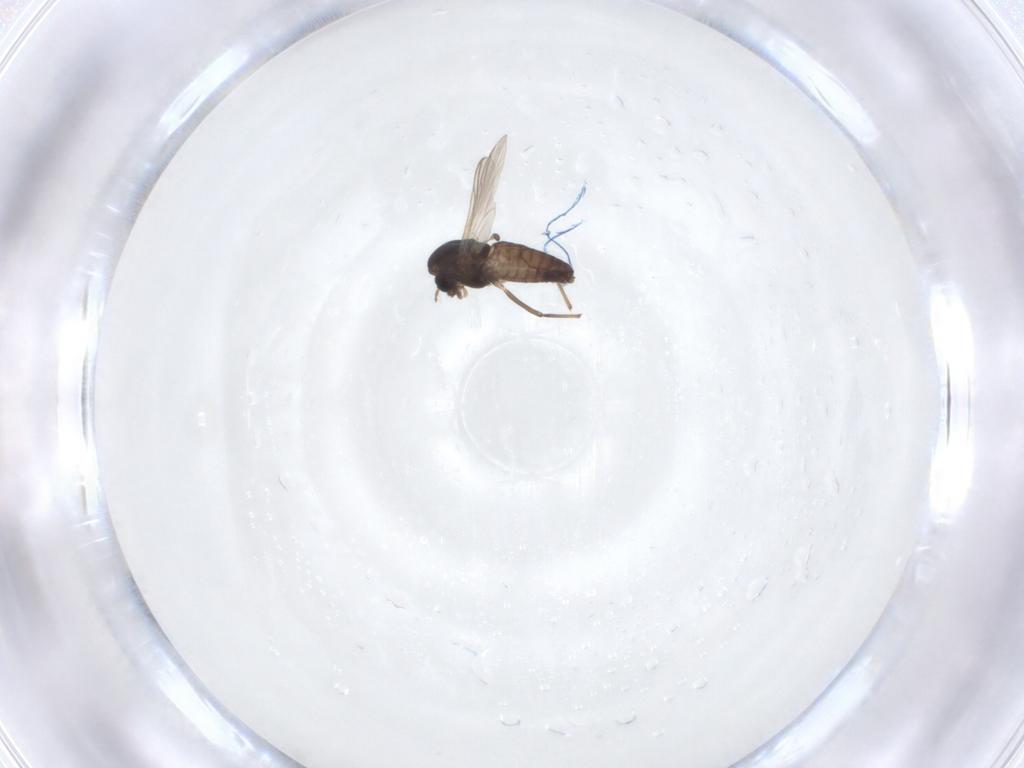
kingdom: Animalia
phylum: Arthropoda
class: Insecta
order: Diptera
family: Chironomidae
